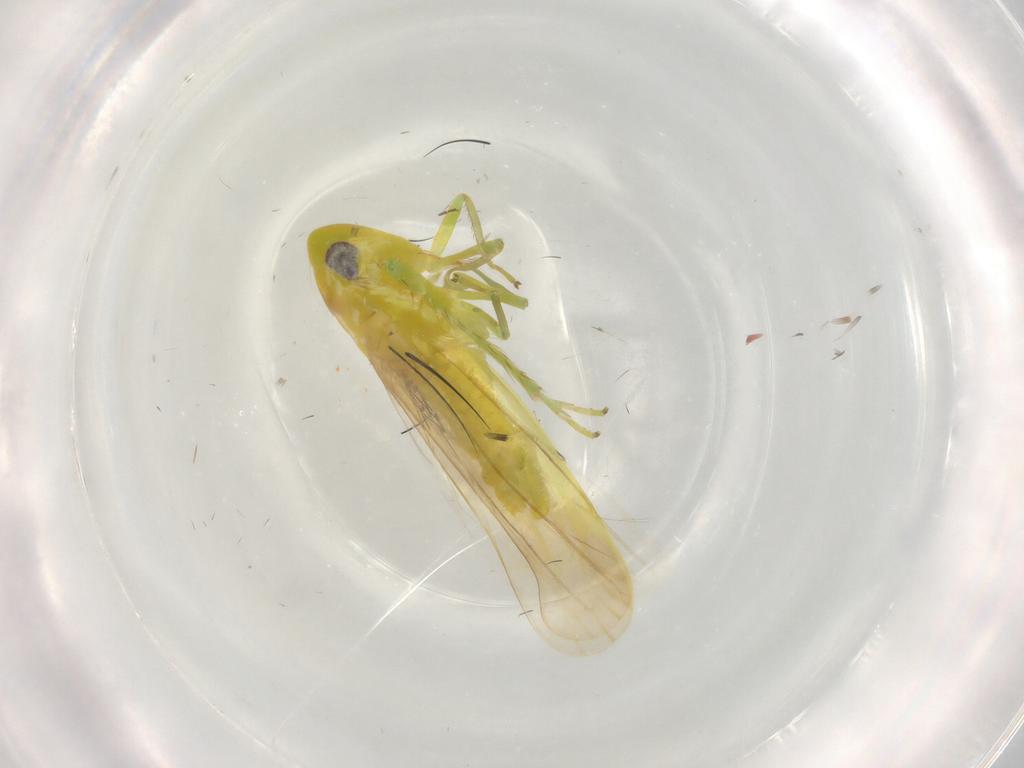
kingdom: Animalia
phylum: Arthropoda
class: Insecta
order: Hemiptera
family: Cicadellidae
